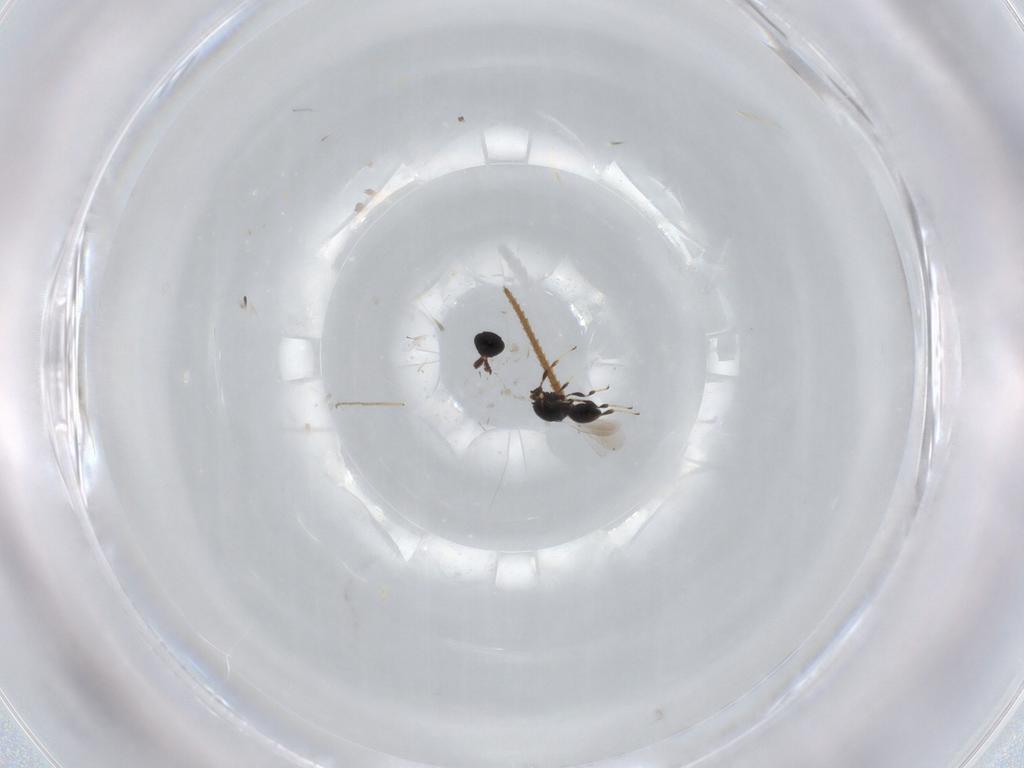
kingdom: Animalia
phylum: Arthropoda
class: Insecta
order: Hymenoptera
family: Platygastridae
